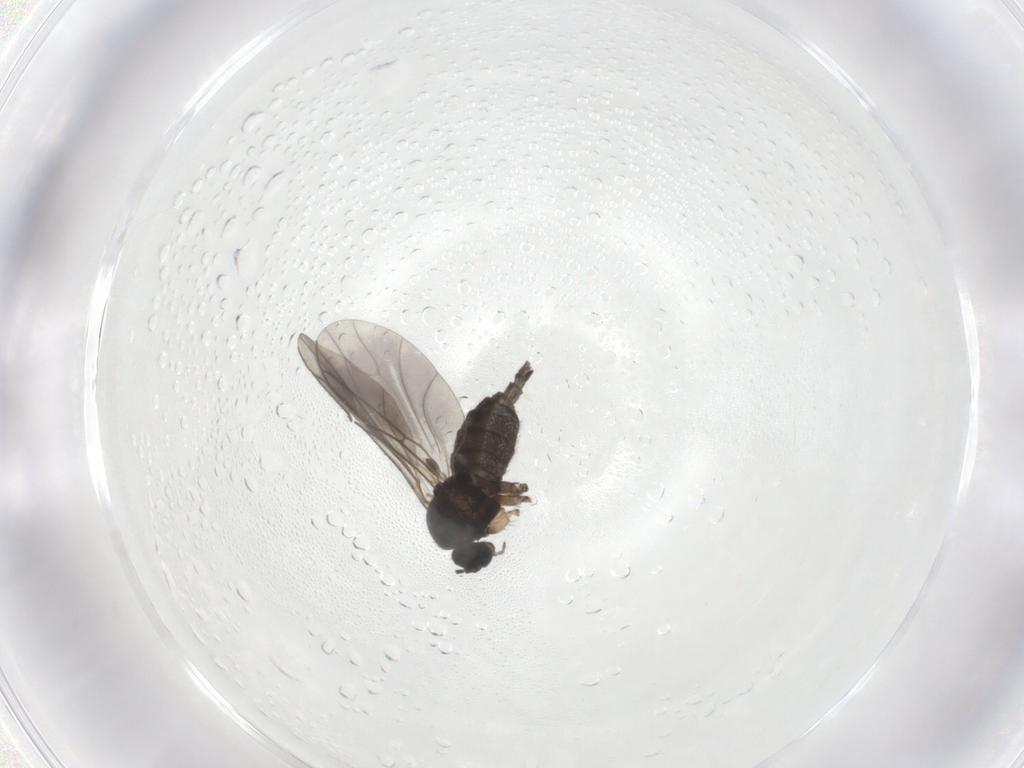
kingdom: Animalia
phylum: Arthropoda
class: Insecta
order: Diptera
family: Sciaridae
